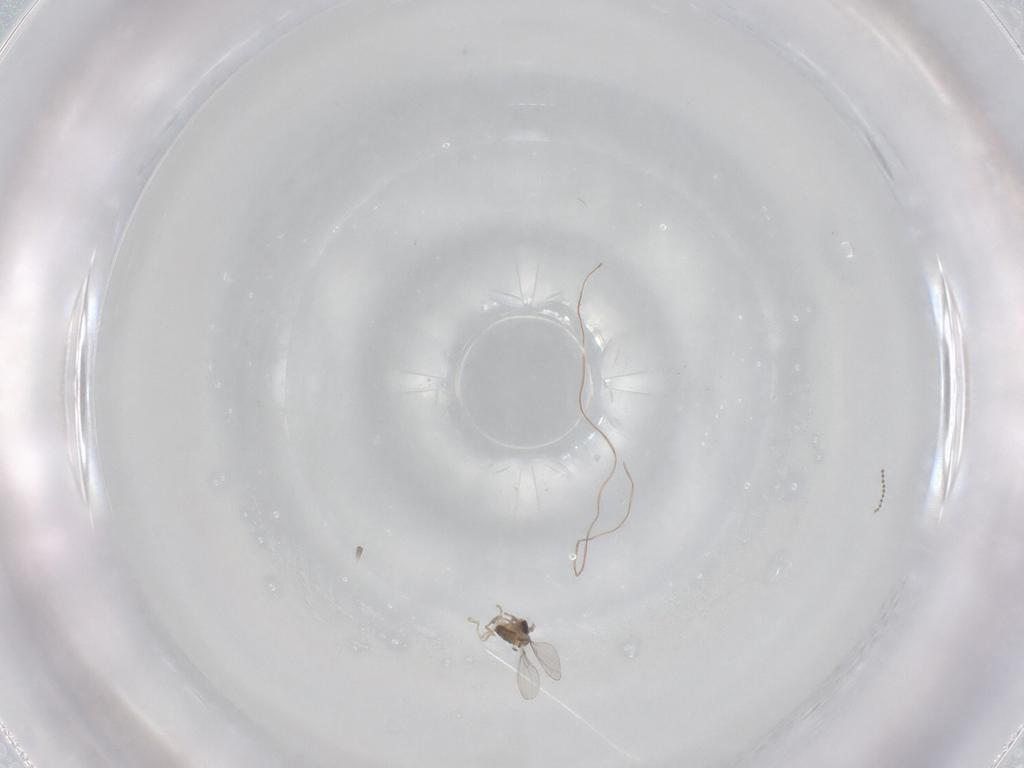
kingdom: Animalia
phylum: Arthropoda
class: Insecta
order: Diptera
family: Cecidomyiidae
